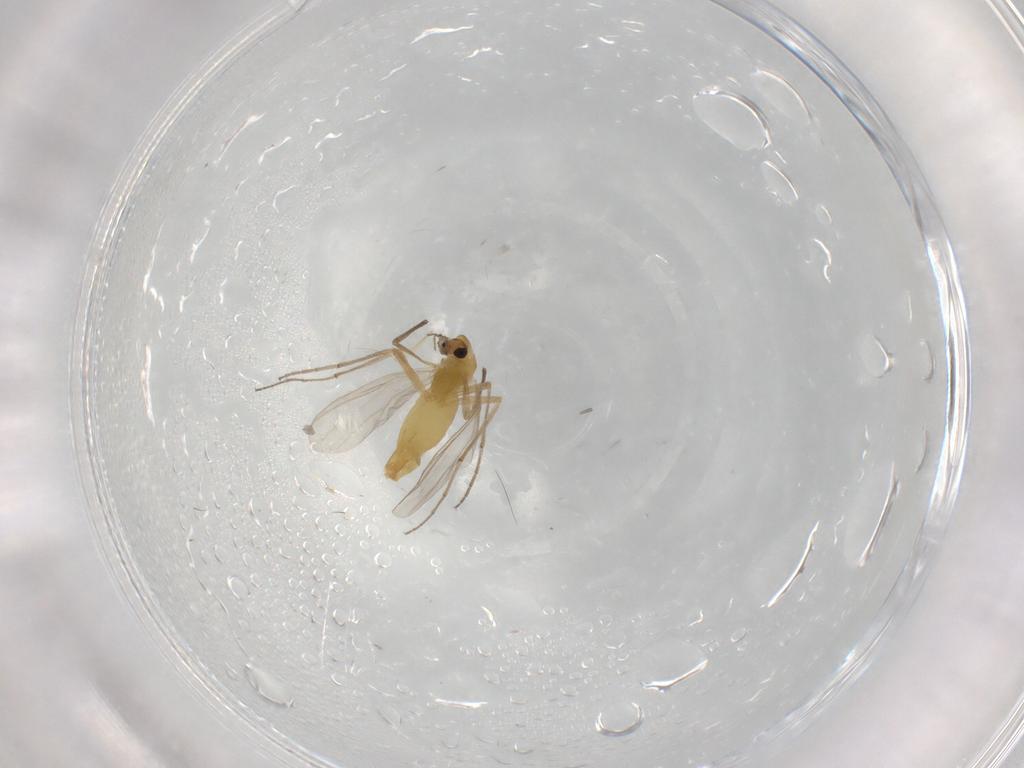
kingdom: Animalia
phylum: Arthropoda
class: Insecta
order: Diptera
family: Chironomidae
